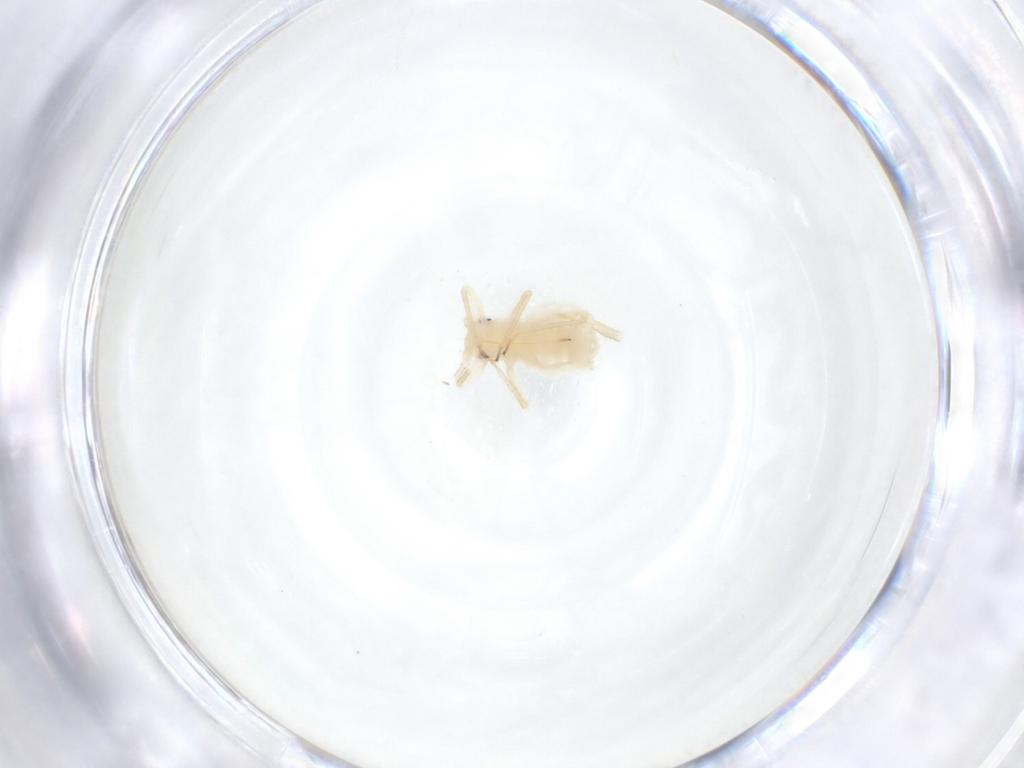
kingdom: Animalia
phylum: Arthropoda
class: Insecta
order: Hemiptera
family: Aphididae
